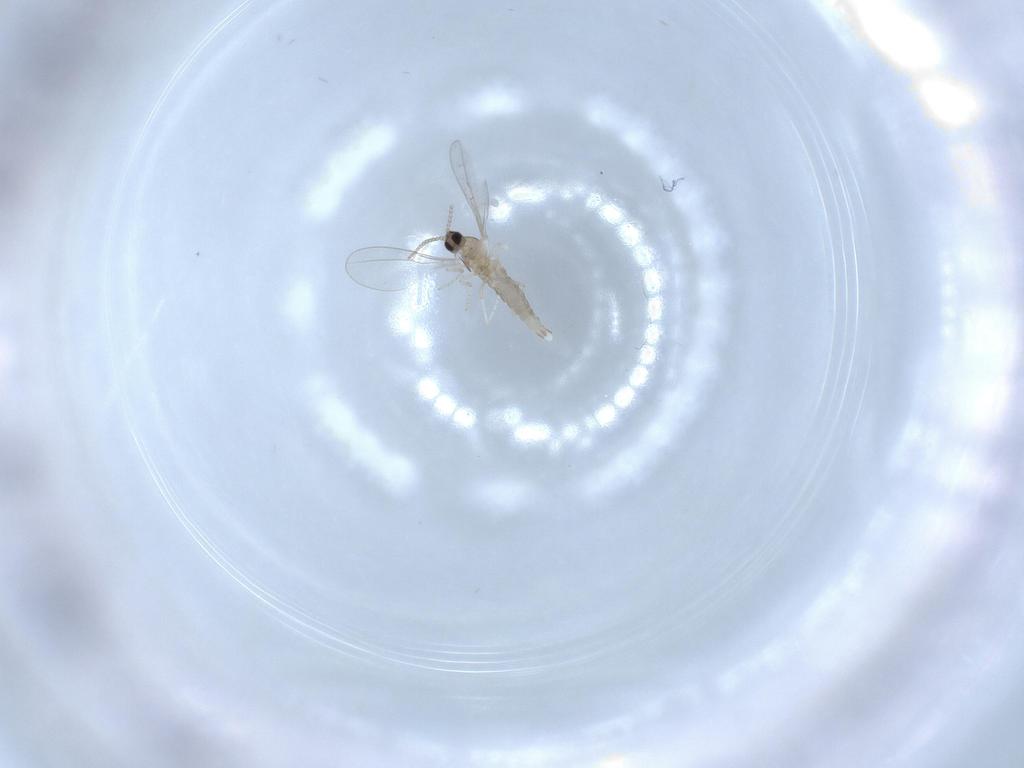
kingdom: Animalia
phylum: Arthropoda
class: Insecta
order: Diptera
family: Cecidomyiidae
